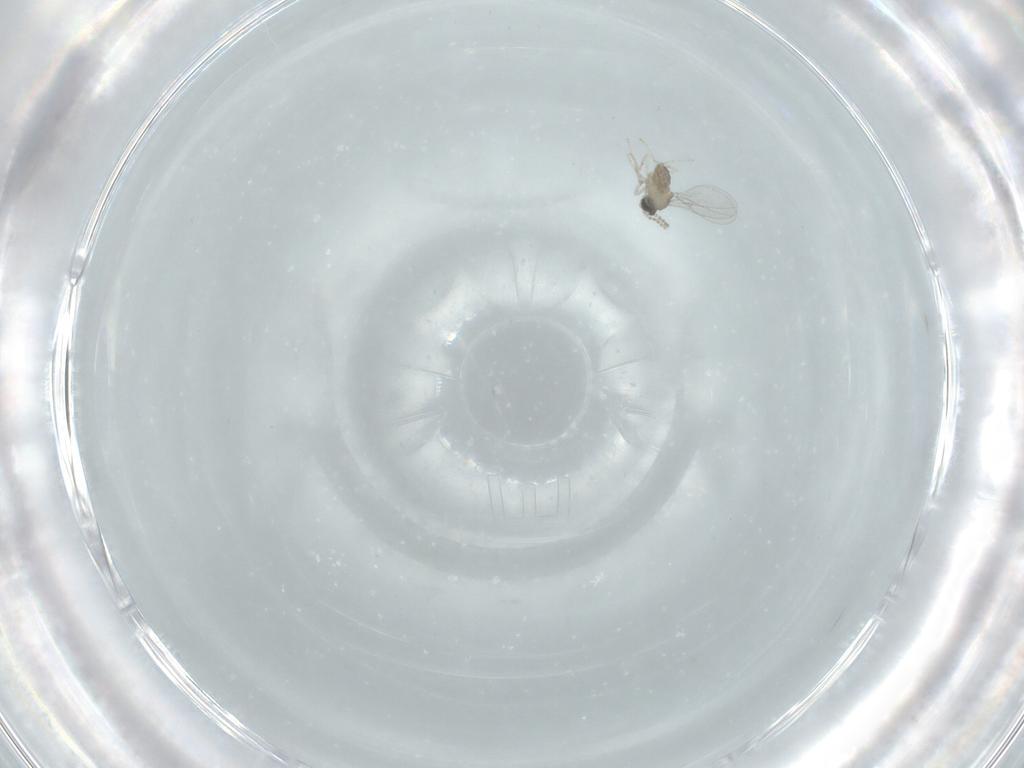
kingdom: Animalia
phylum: Arthropoda
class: Insecta
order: Diptera
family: Cecidomyiidae
